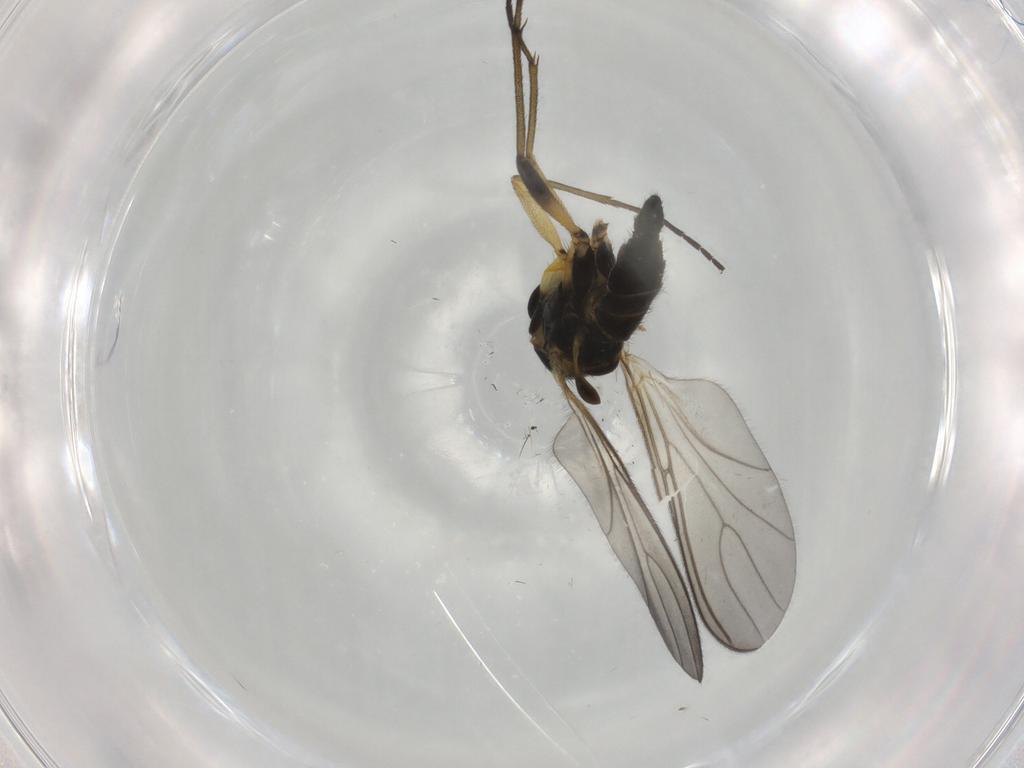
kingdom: Animalia
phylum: Arthropoda
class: Insecta
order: Diptera
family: Sciaridae
